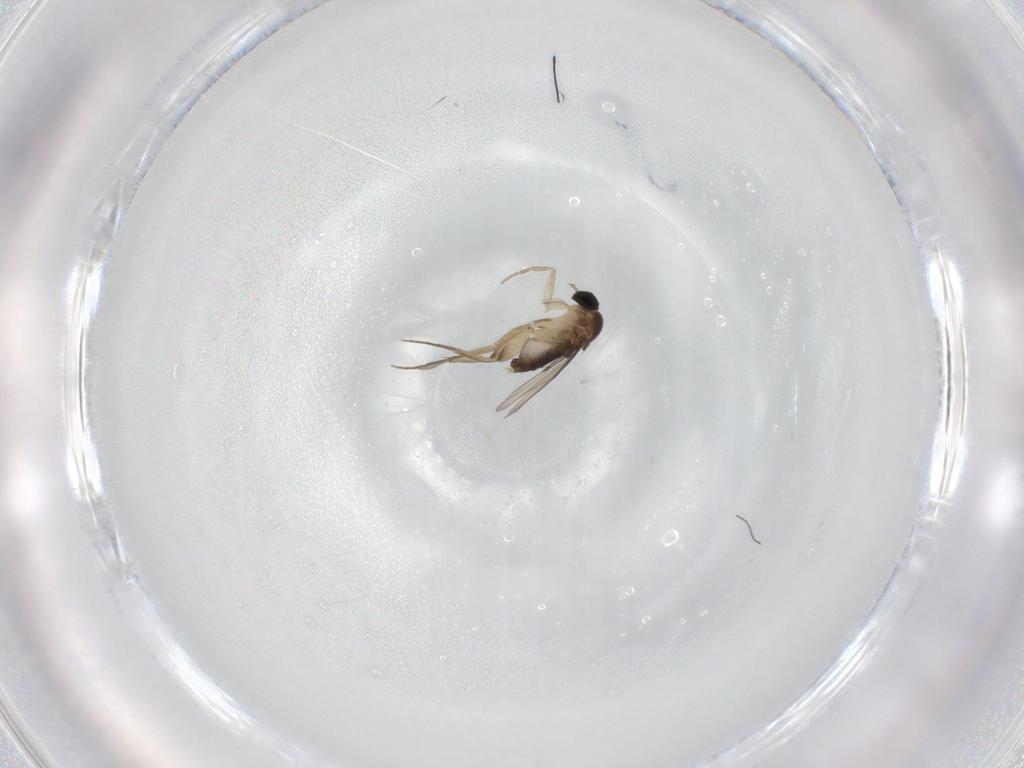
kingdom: Animalia
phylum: Arthropoda
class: Insecta
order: Diptera
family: Phoridae
